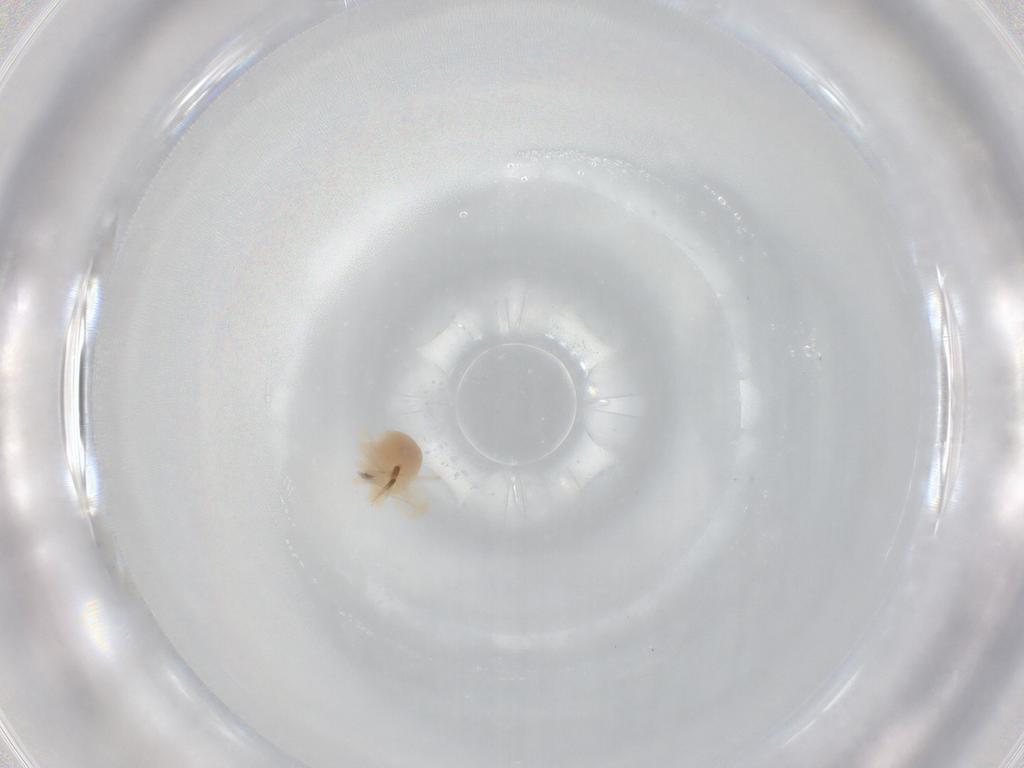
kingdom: Animalia
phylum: Arthropoda
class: Arachnida
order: Trombidiformes
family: Anystidae
